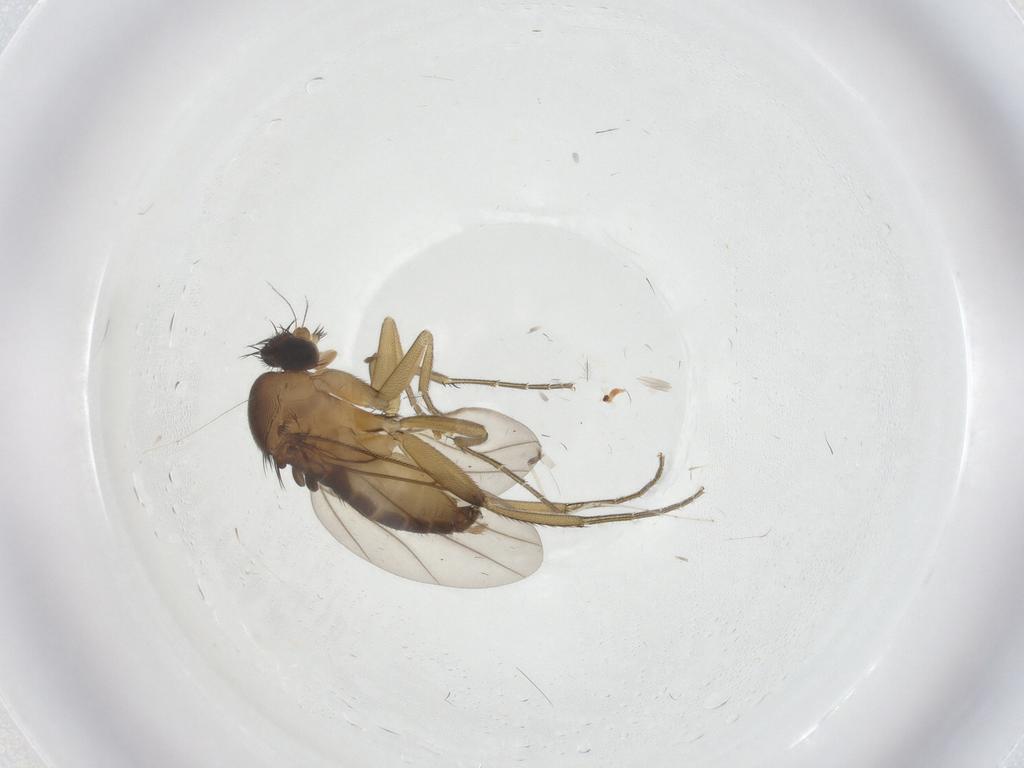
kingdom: Animalia
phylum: Arthropoda
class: Insecta
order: Diptera
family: Phoridae
